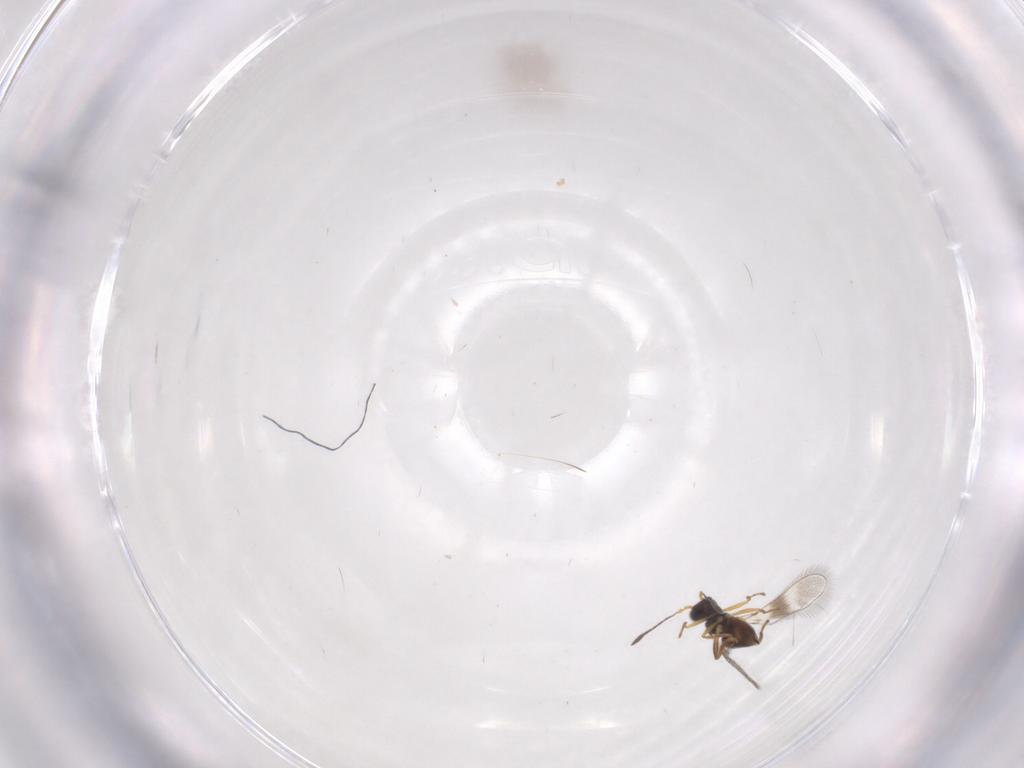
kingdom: Animalia
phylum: Arthropoda
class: Insecta
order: Hymenoptera
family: Mymaridae
